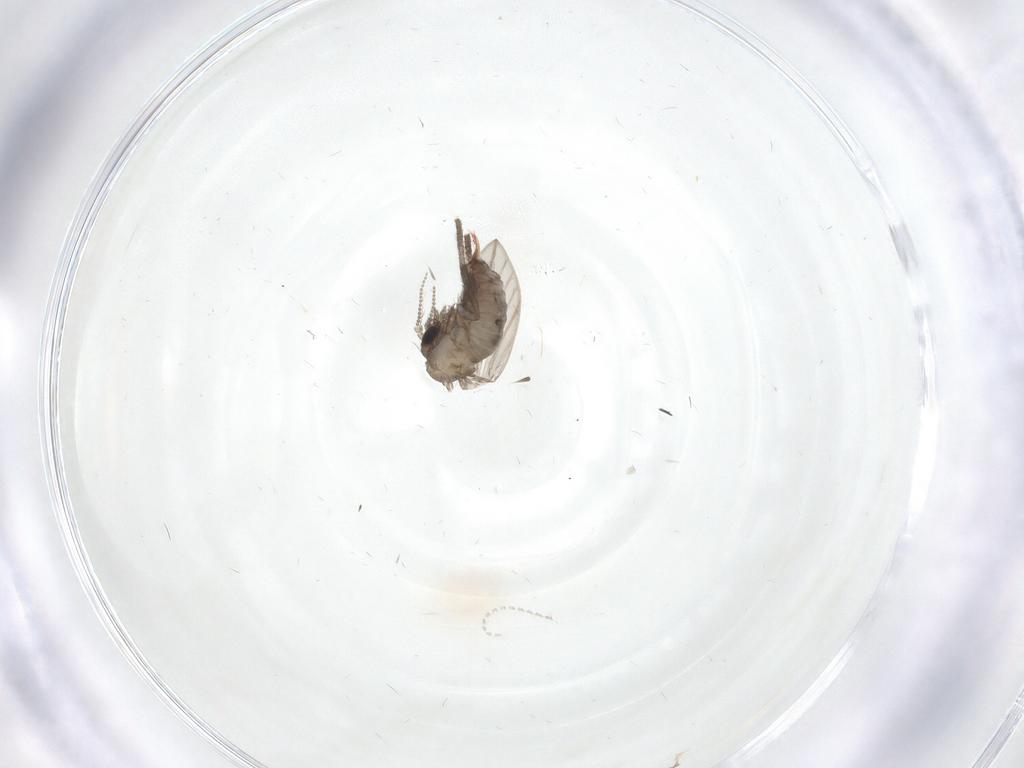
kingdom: Animalia
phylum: Arthropoda
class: Insecta
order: Diptera
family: Psychodidae
